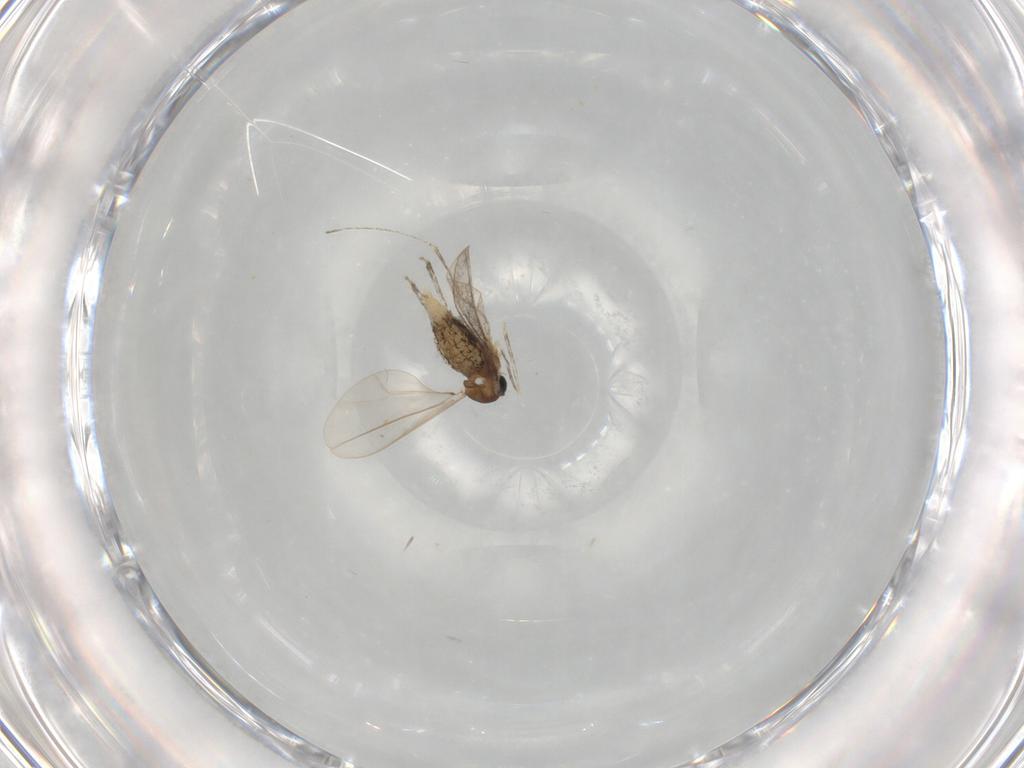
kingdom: Animalia
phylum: Arthropoda
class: Insecta
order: Diptera
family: Cecidomyiidae
